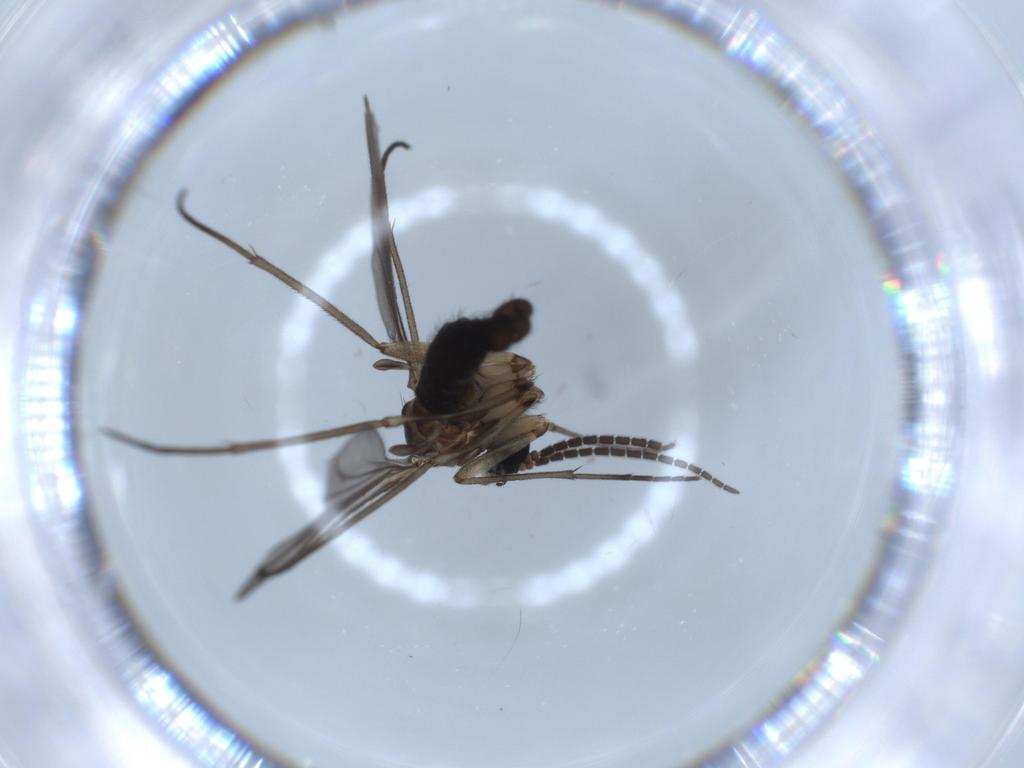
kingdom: Animalia
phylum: Arthropoda
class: Insecta
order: Diptera
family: Sciaridae
